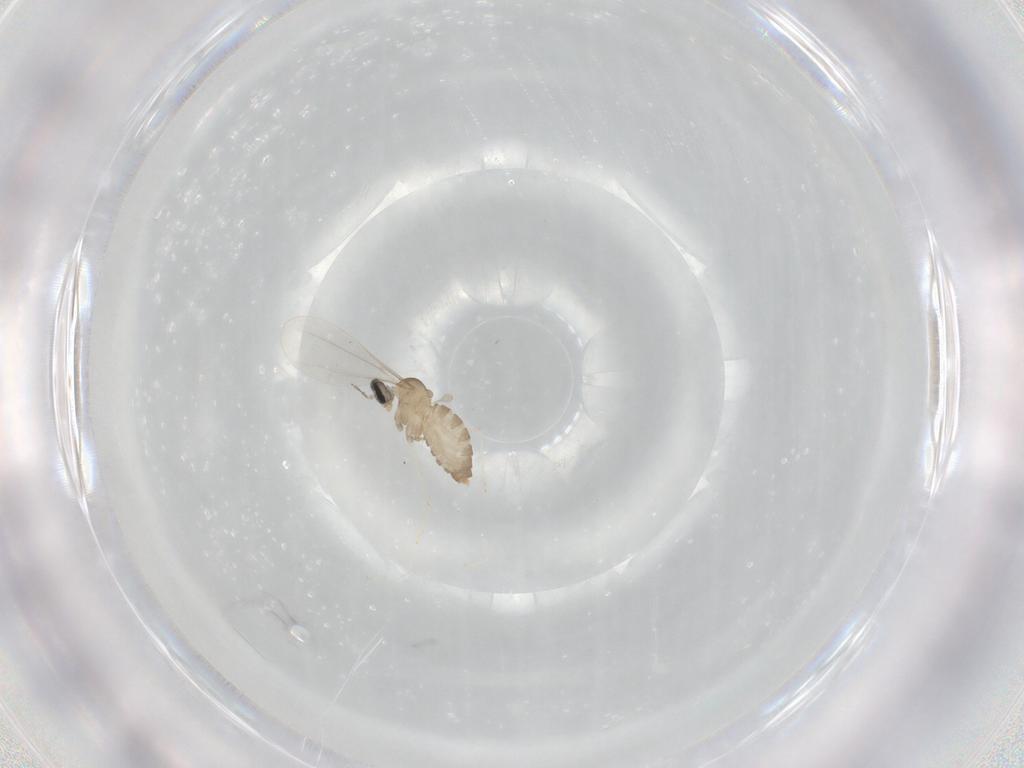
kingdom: Animalia
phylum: Arthropoda
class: Insecta
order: Diptera
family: Cecidomyiidae
